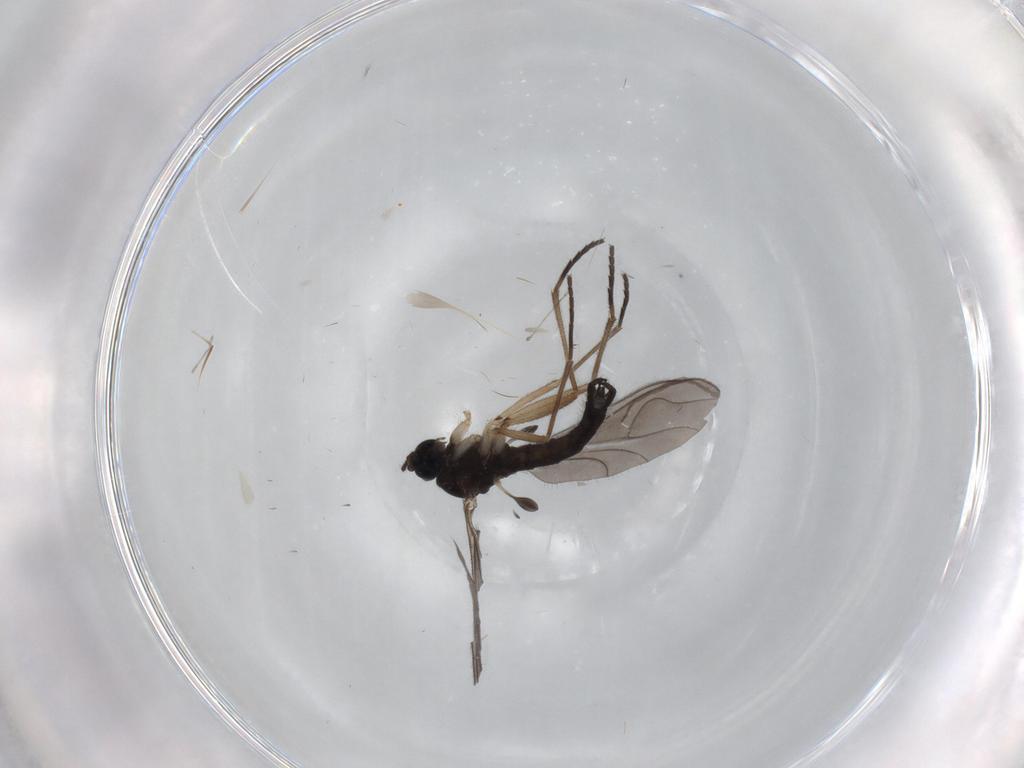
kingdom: Animalia
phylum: Arthropoda
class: Insecta
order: Diptera
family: Sciaridae
